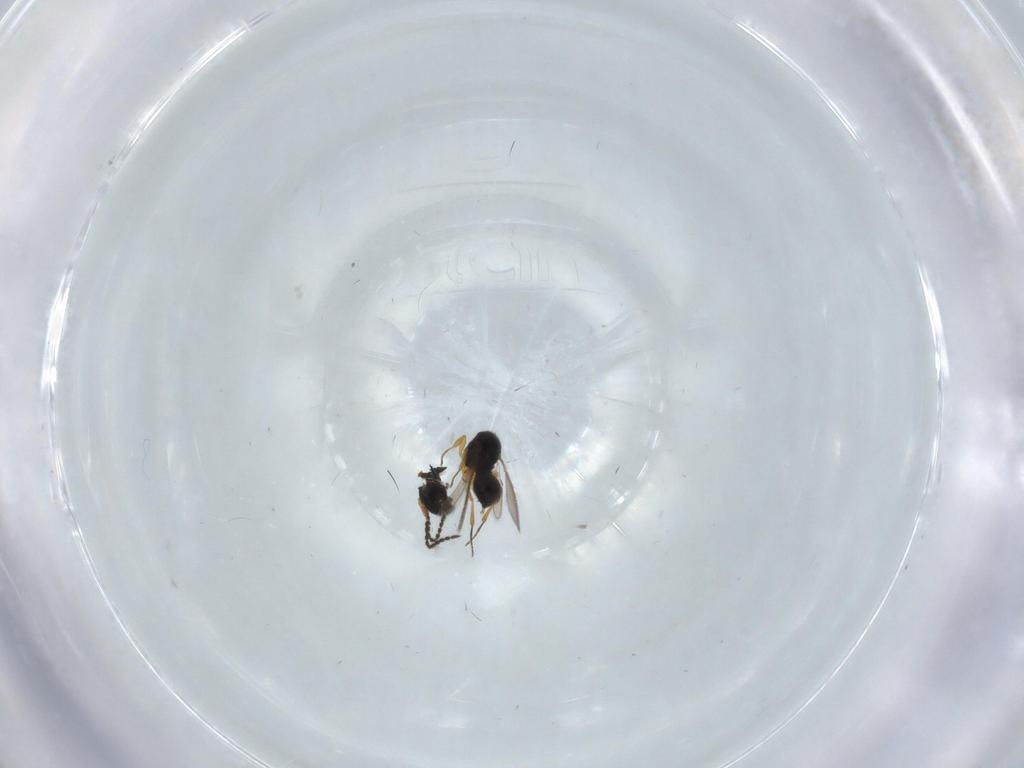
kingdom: Animalia
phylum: Arthropoda
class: Insecta
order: Hymenoptera
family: Scelionidae
